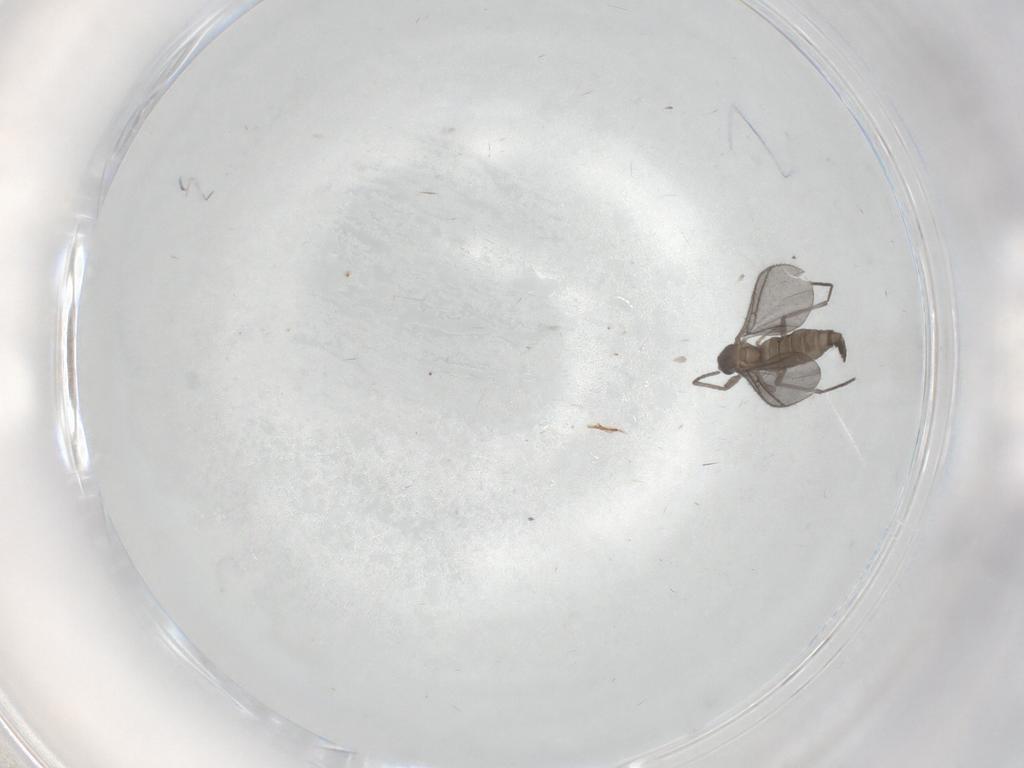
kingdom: Animalia
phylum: Arthropoda
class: Insecta
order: Diptera
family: Sciaridae
